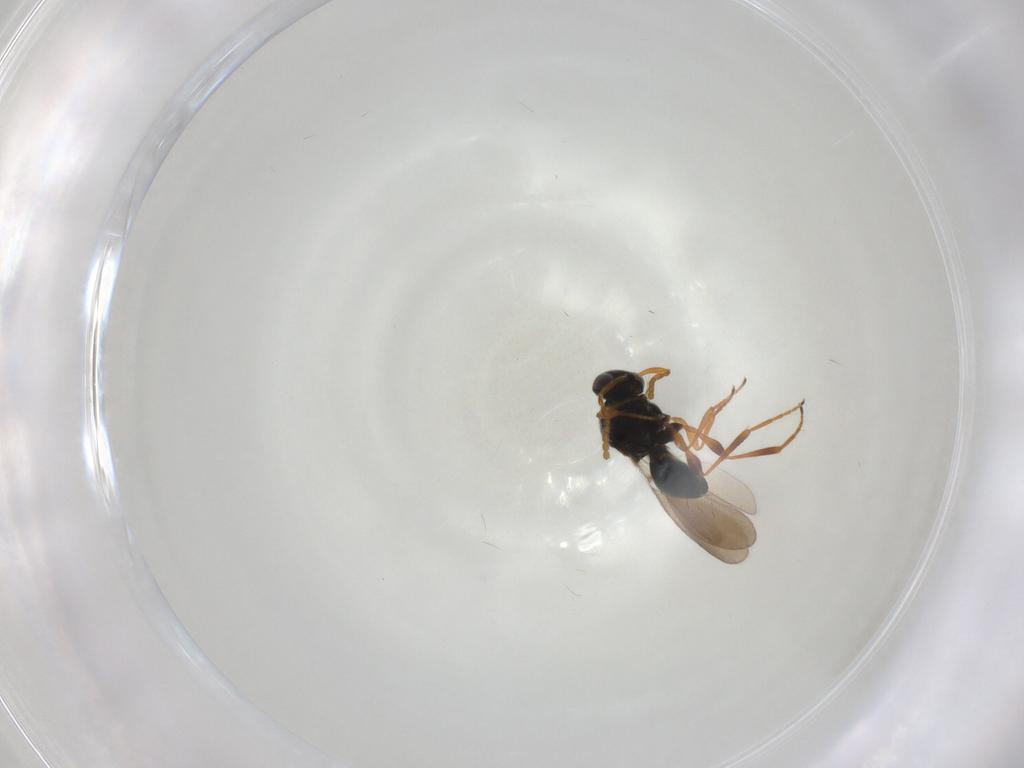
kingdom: Animalia
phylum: Arthropoda
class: Insecta
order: Hymenoptera
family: Platygastridae
